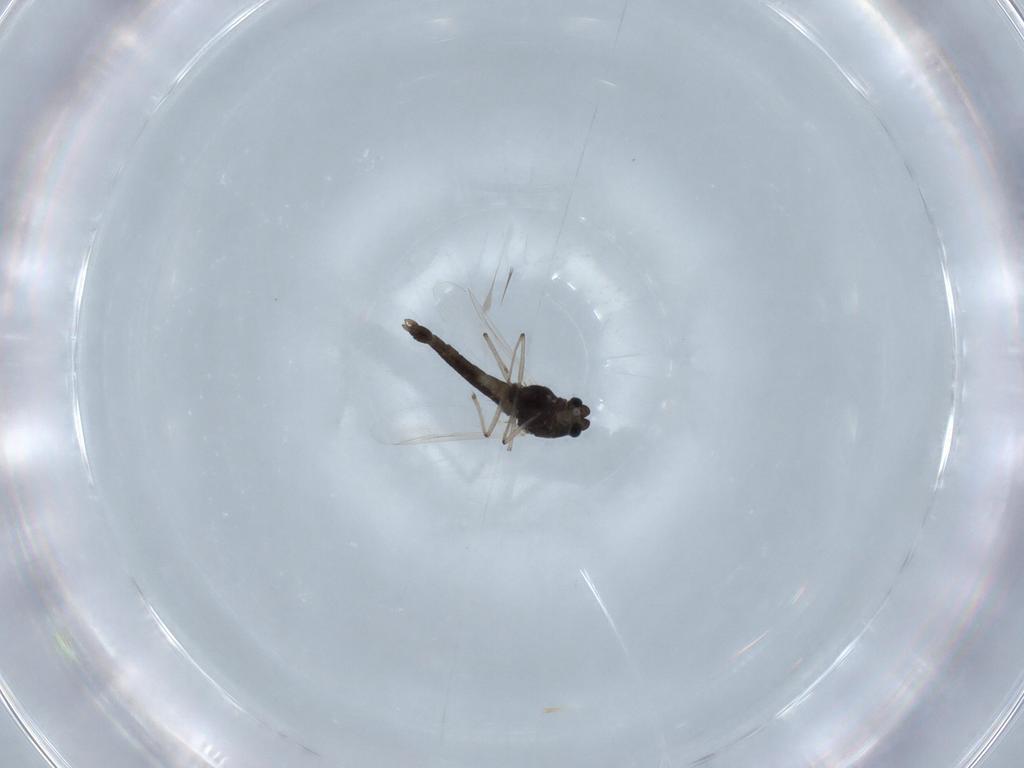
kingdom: Animalia
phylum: Arthropoda
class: Insecta
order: Diptera
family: Chironomidae
